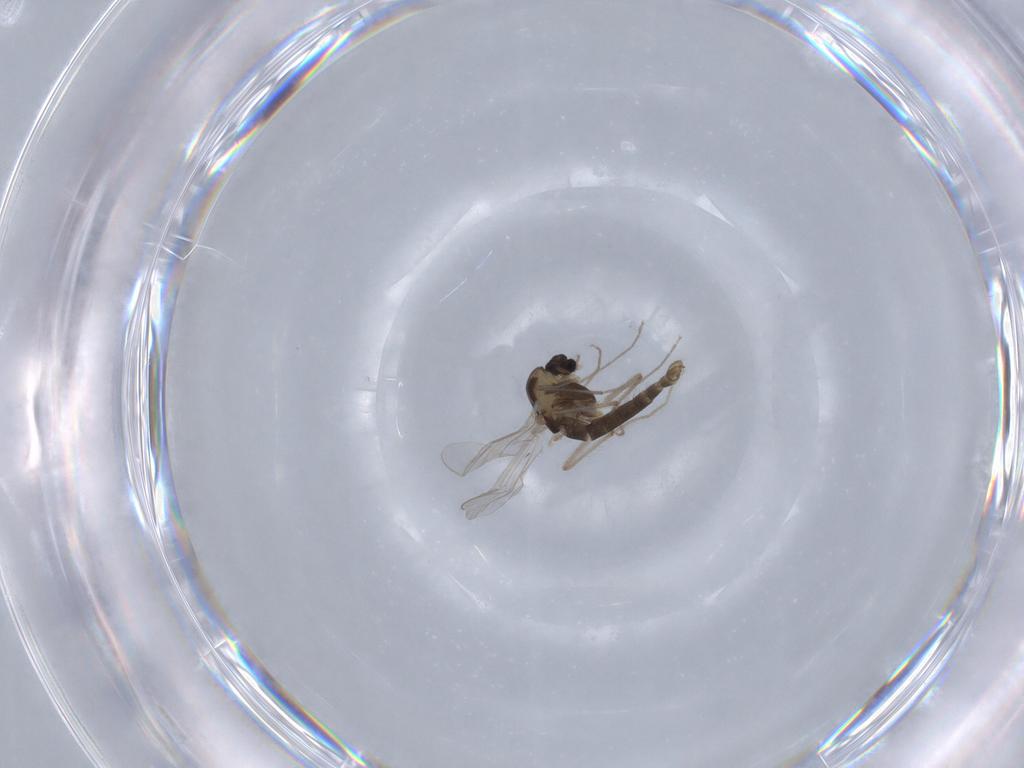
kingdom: Animalia
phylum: Arthropoda
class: Insecta
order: Diptera
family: Chironomidae
